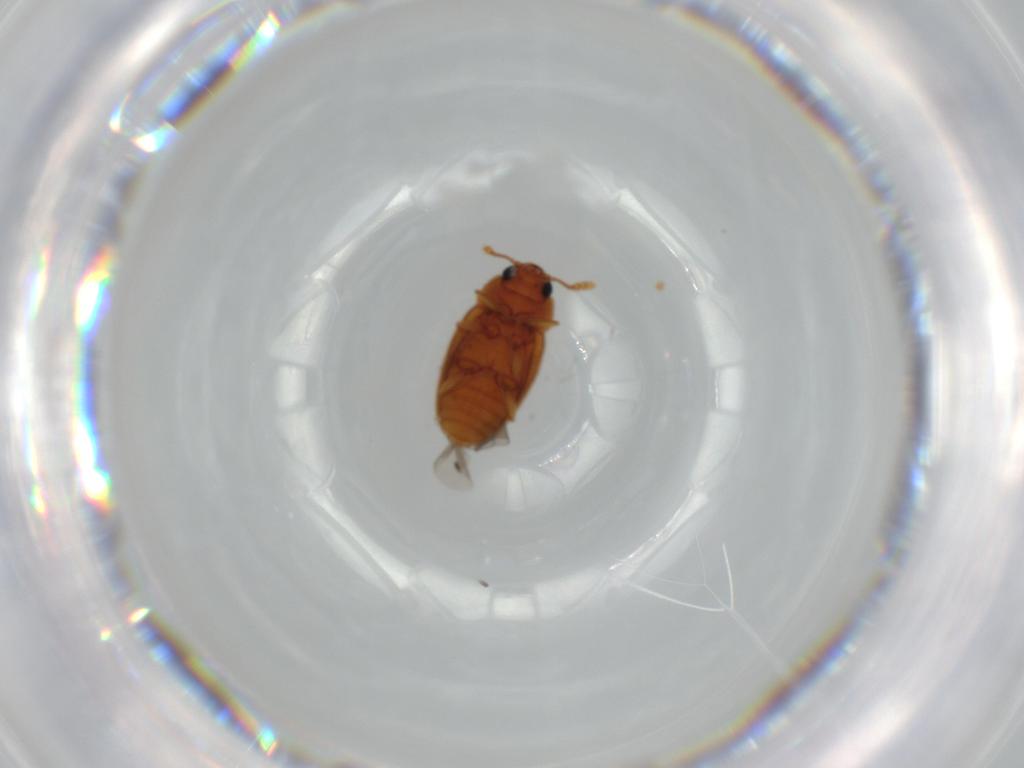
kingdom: Animalia
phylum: Arthropoda
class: Insecta
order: Coleoptera
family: Erotylidae
